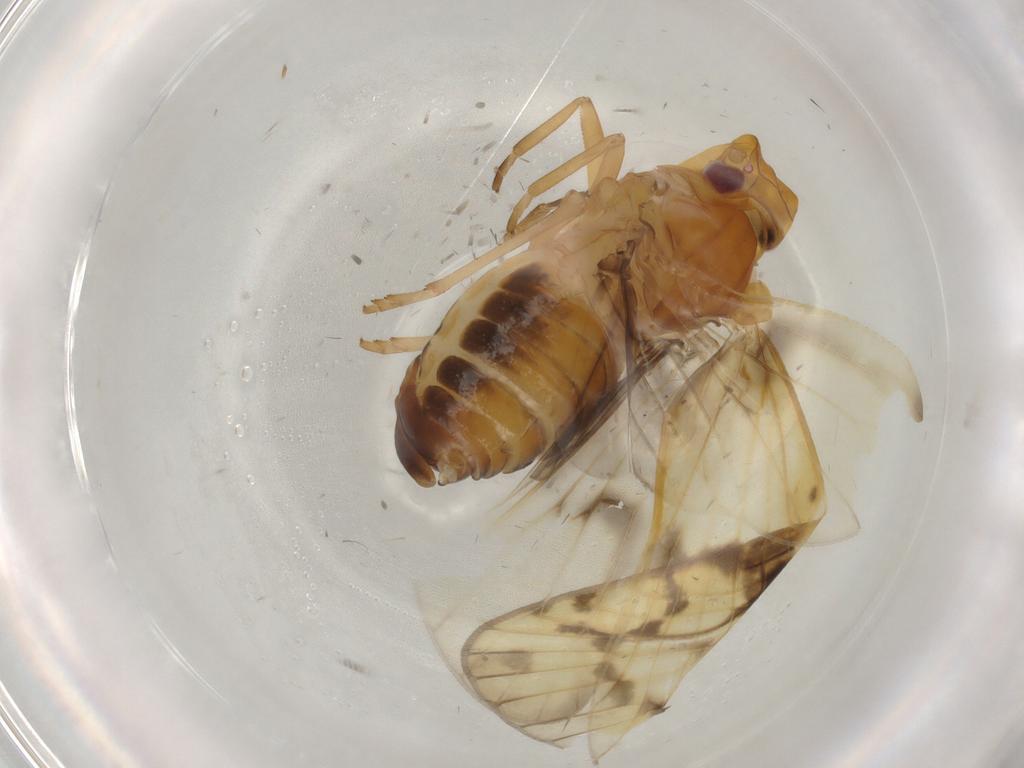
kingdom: Animalia
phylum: Arthropoda
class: Insecta
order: Hemiptera
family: Cixiidae
